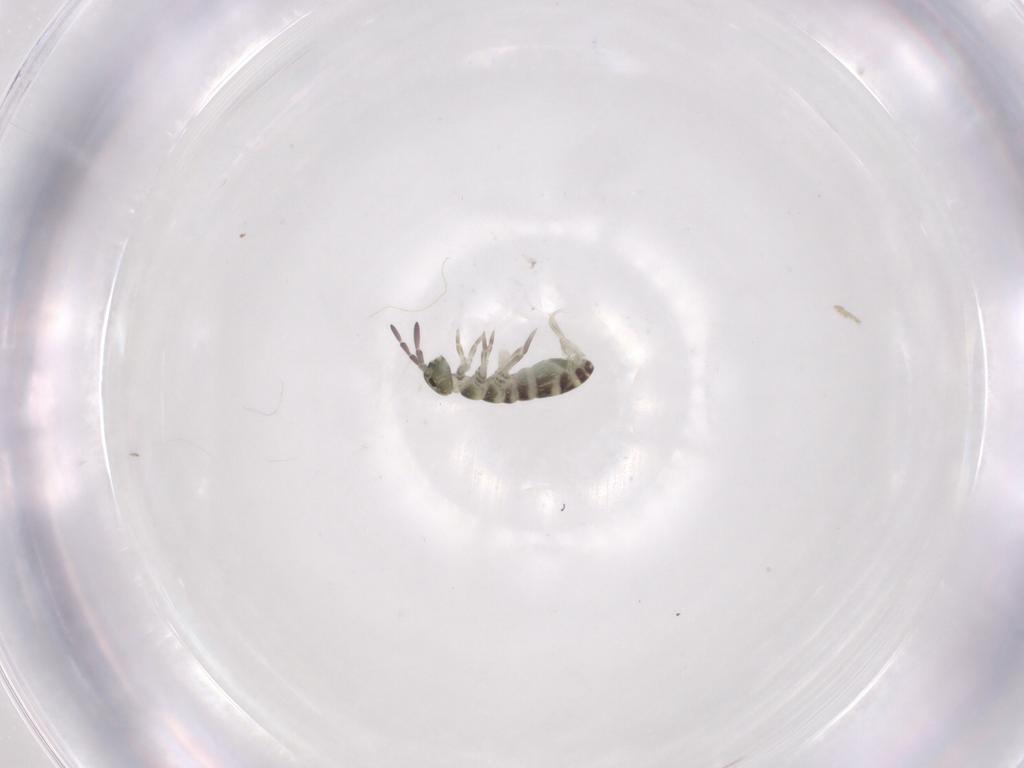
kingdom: Animalia
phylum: Arthropoda
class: Collembola
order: Entomobryomorpha
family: Isotomidae
